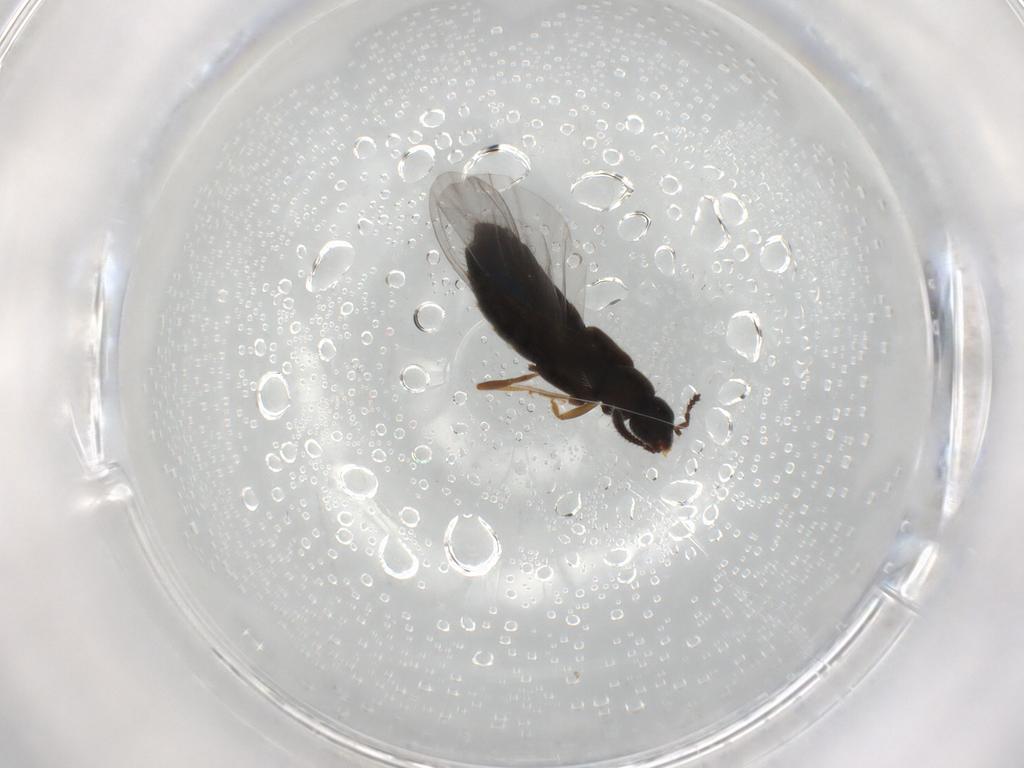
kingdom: Animalia
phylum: Arthropoda
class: Insecta
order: Coleoptera
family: Staphylinidae
